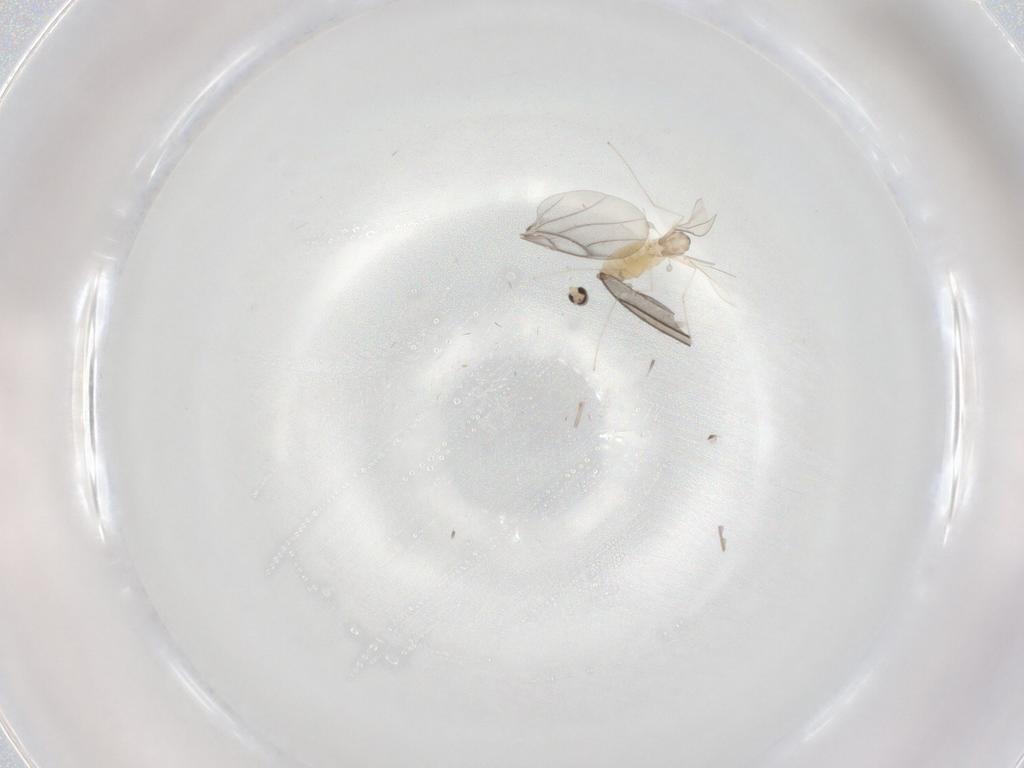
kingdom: Animalia
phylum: Arthropoda
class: Insecta
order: Diptera
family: Cecidomyiidae
